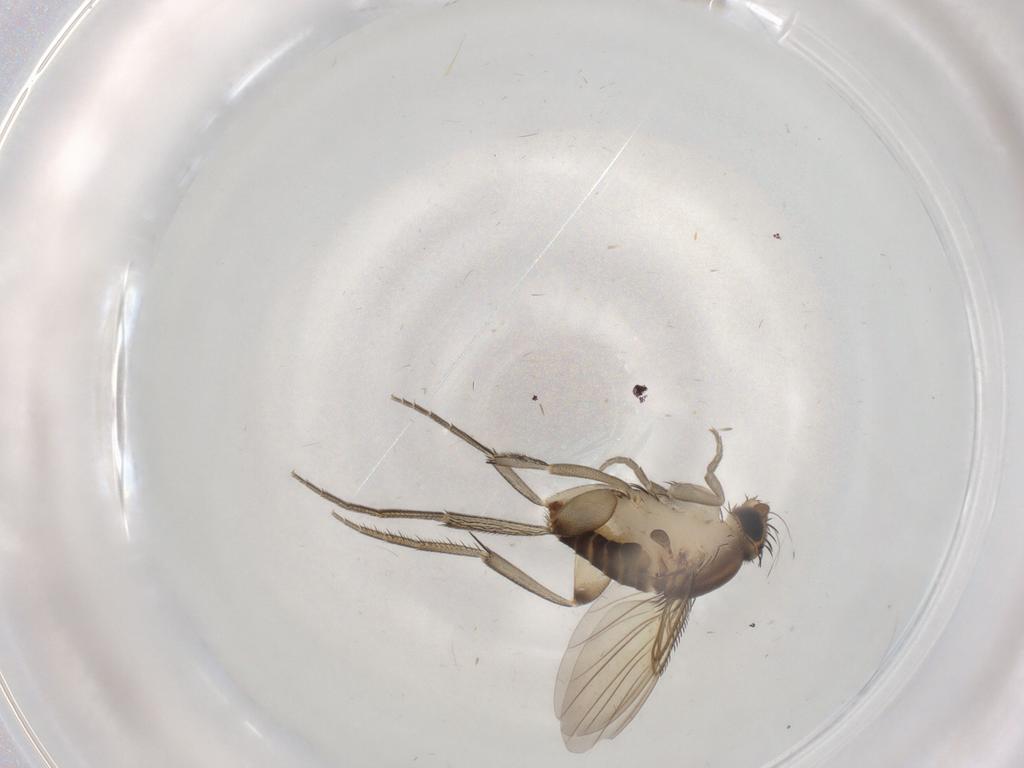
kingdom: Animalia
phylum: Arthropoda
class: Insecta
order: Diptera
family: Phoridae
